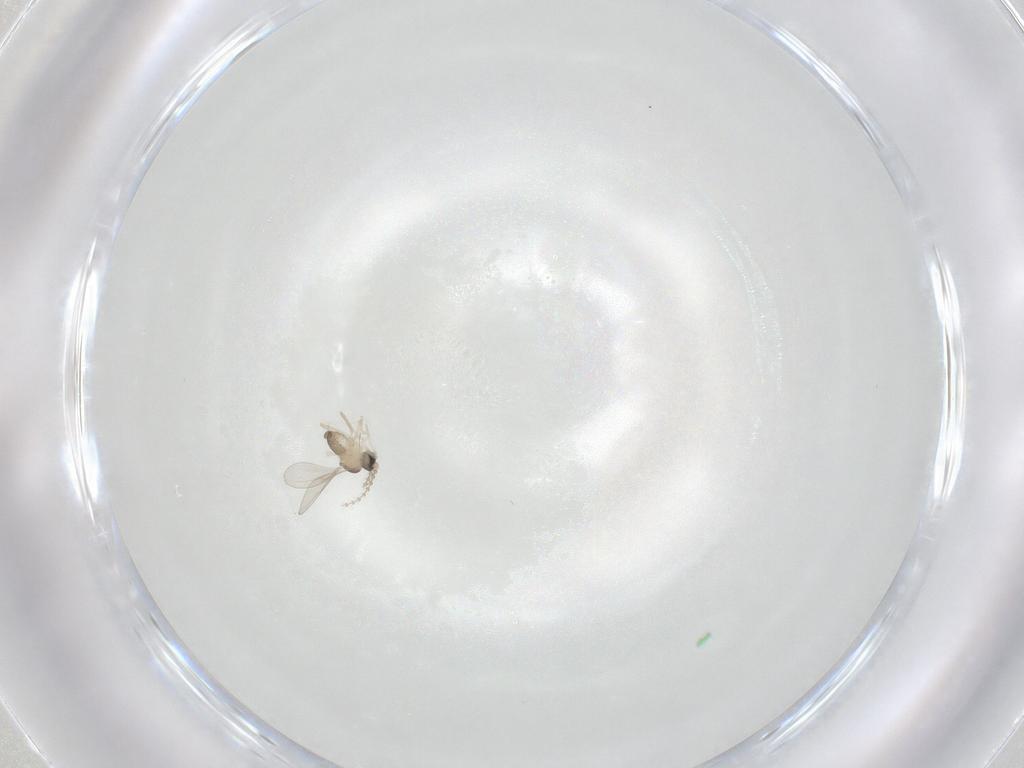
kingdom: Animalia
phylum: Arthropoda
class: Insecta
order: Diptera
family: Cecidomyiidae
